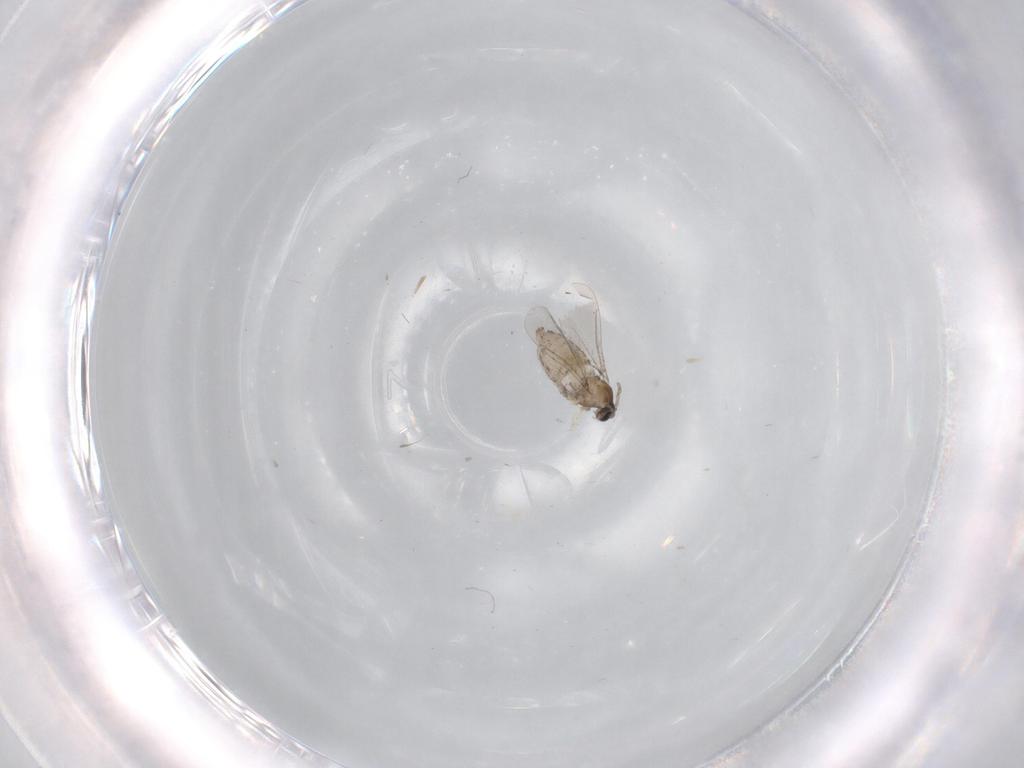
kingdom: Animalia
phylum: Arthropoda
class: Insecta
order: Diptera
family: Cecidomyiidae
